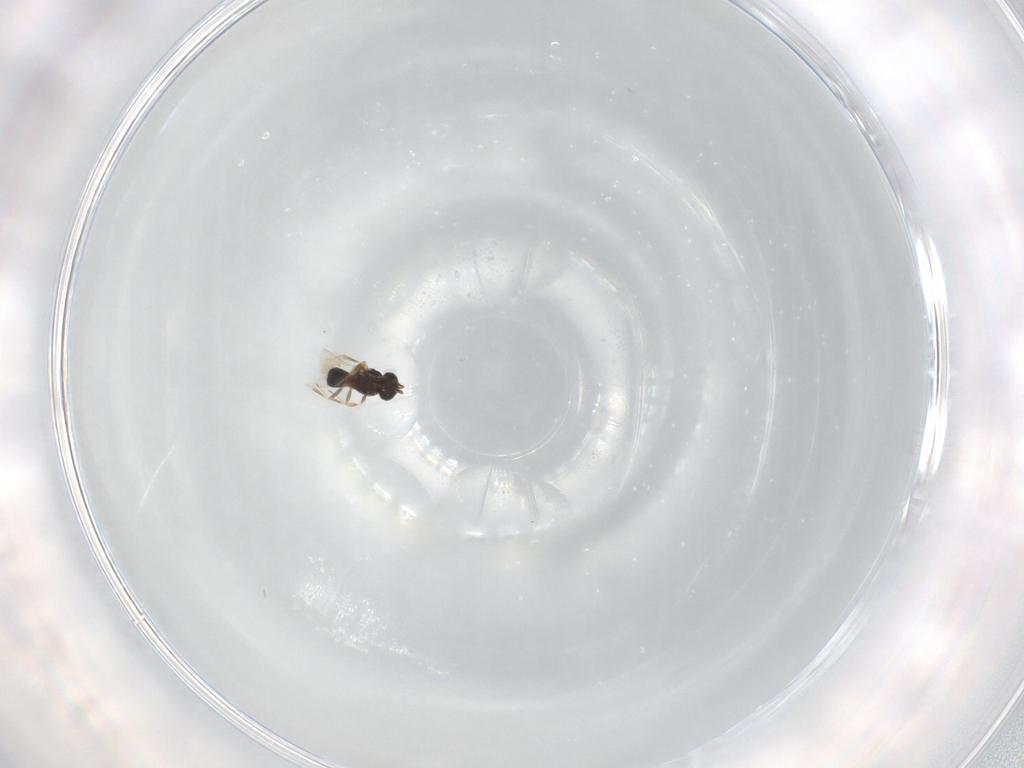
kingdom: Animalia
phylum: Arthropoda
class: Insecta
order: Hymenoptera
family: Scelionidae
